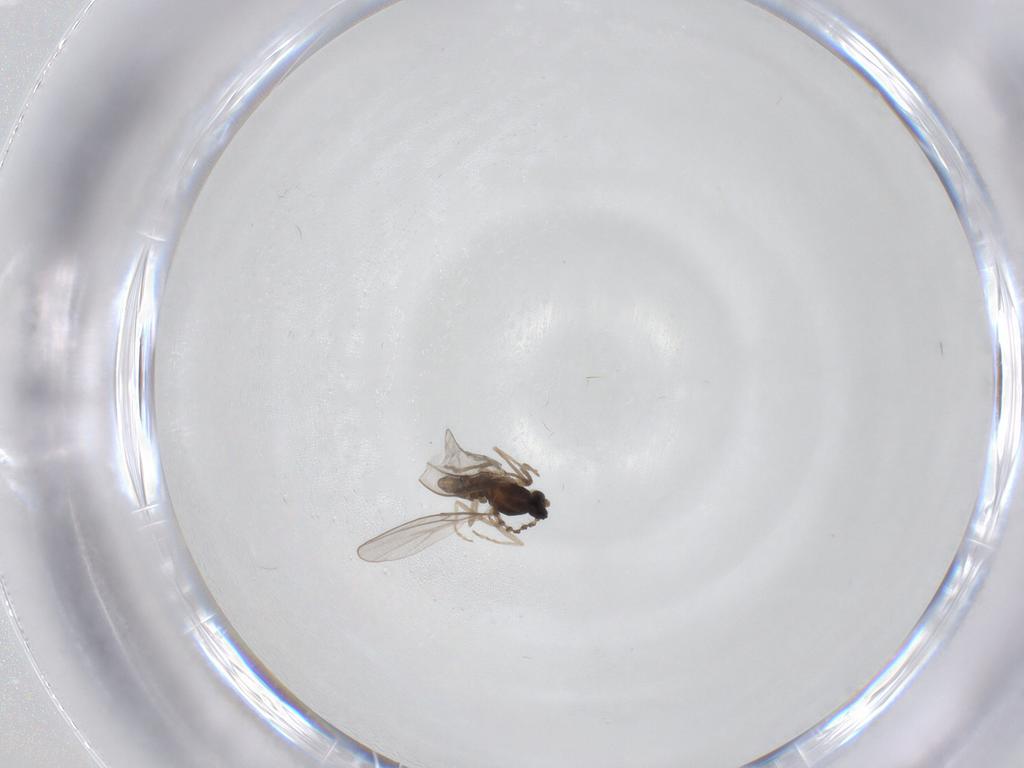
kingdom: Animalia
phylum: Arthropoda
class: Insecta
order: Diptera
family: Cecidomyiidae
